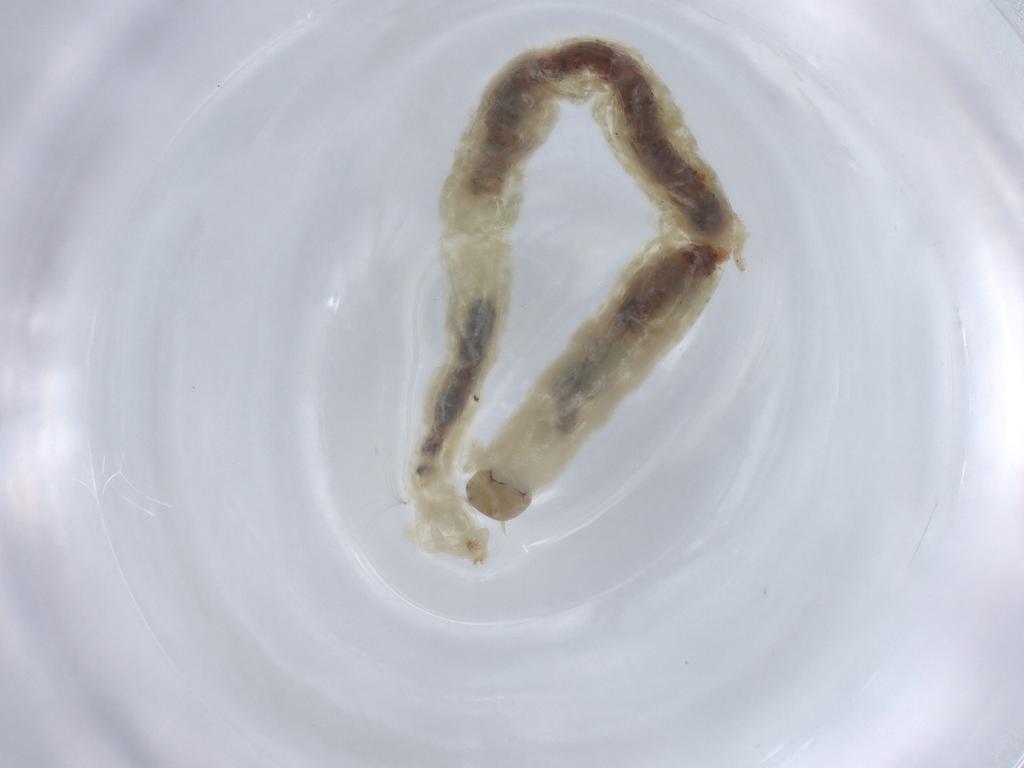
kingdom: Animalia
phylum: Arthropoda
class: Insecta
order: Diptera
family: Chironomidae
